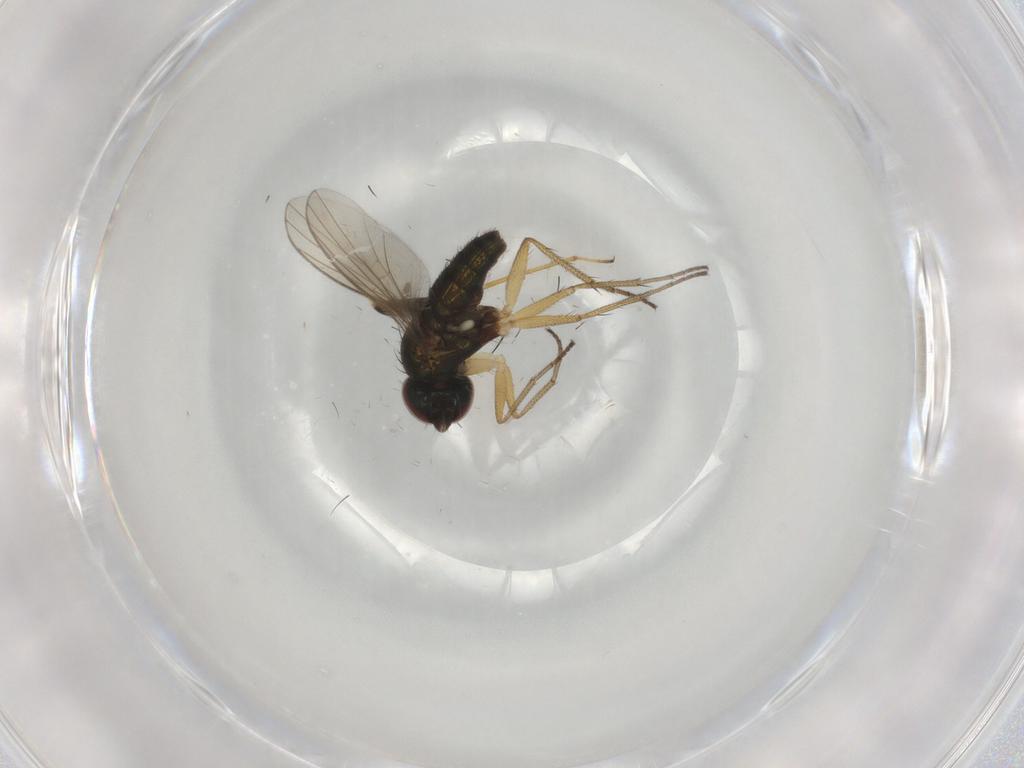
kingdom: Animalia
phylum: Arthropoda
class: Insecta
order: Diptera
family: Dolichopodidae
